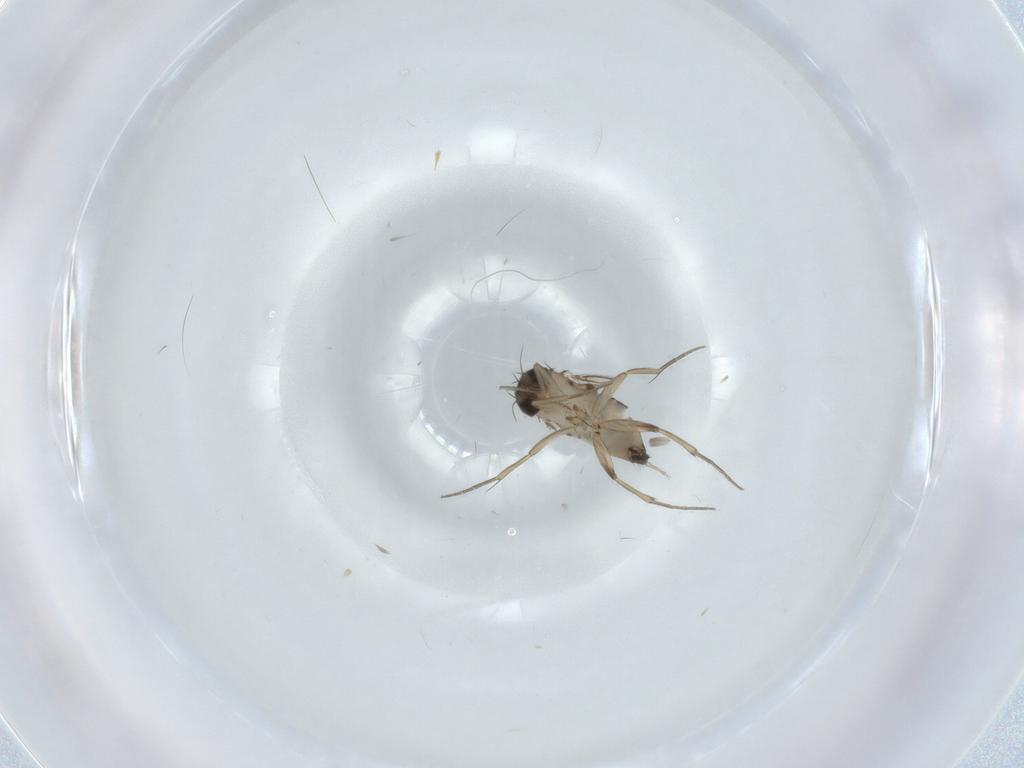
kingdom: Animalia
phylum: Arthropoda
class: Insecta
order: Diptera
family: Phoridae
